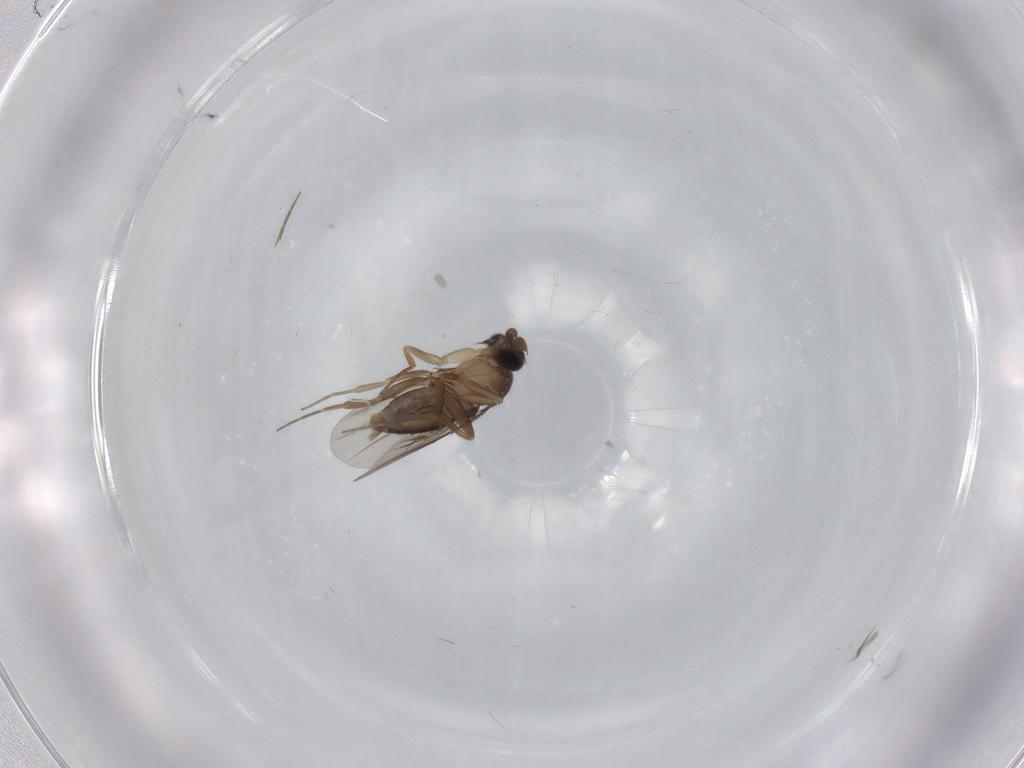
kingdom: Animalia
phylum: Arthropoda
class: Insecta
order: Diptera
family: Phoridae
